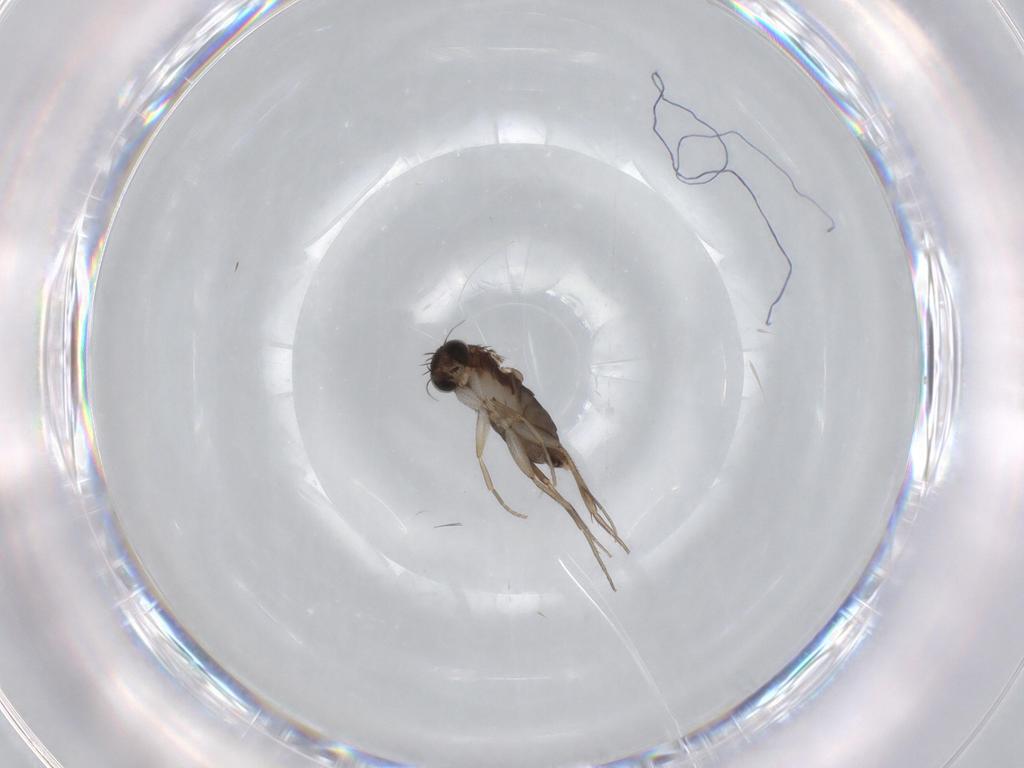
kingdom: Animalia
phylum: Arthropoda
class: Insecta
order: Diptera
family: Phoridae
